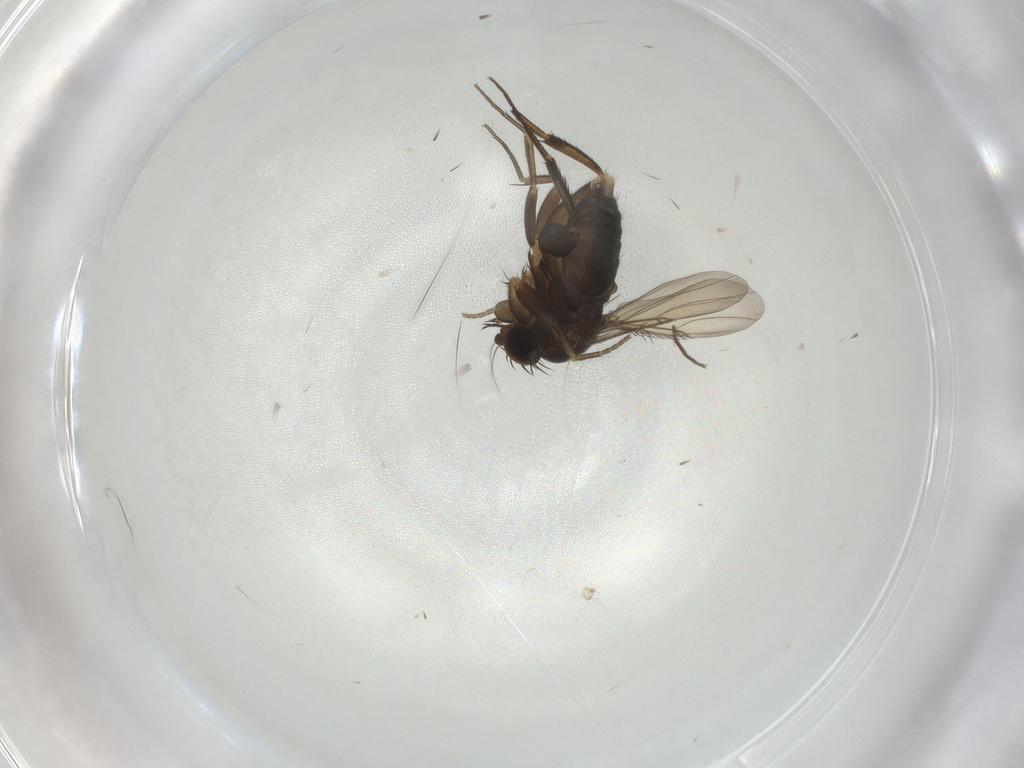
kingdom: Animalia
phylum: Arthropoda
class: Insecta
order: Diptera
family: Phoridae
